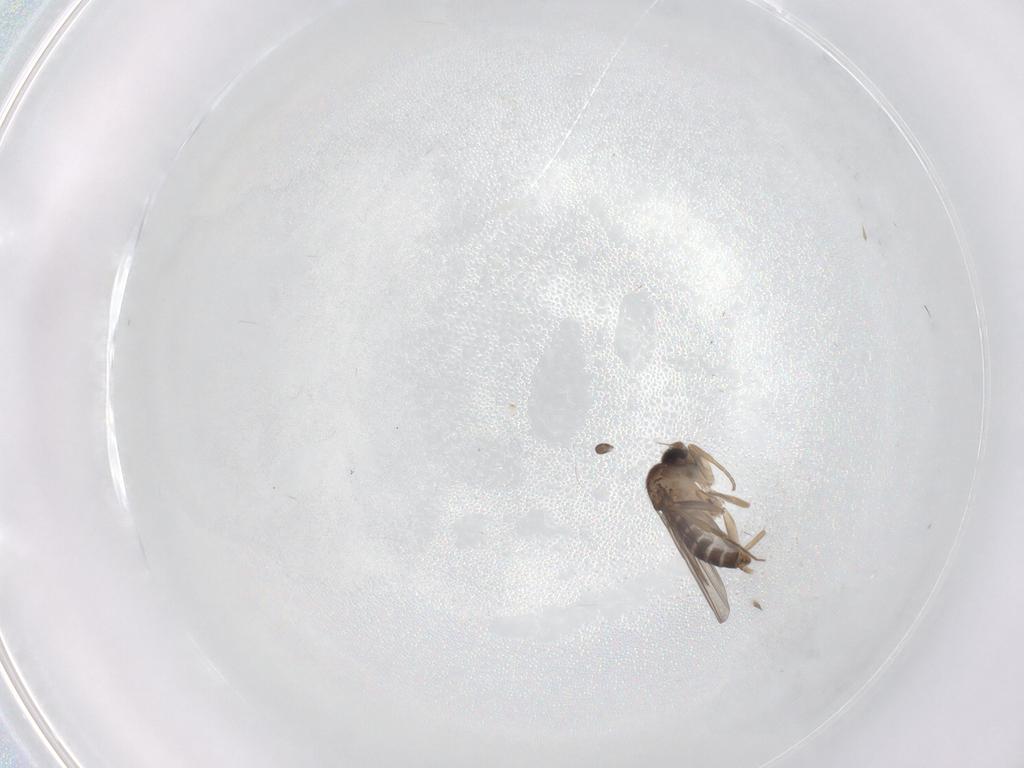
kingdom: Animalia
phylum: Arthropoda
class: Insecta
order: Diptera
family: Phoridae
